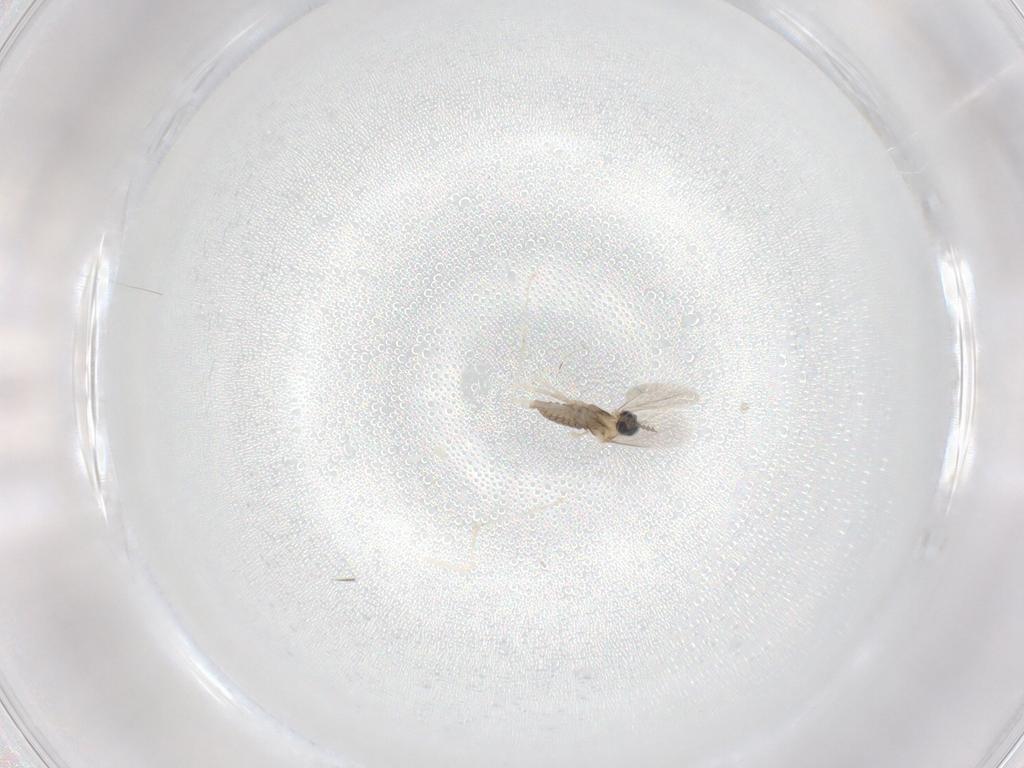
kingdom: Animalia
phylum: Arthropoda
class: Insecta
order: Diptera
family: Cecidomyiidae
